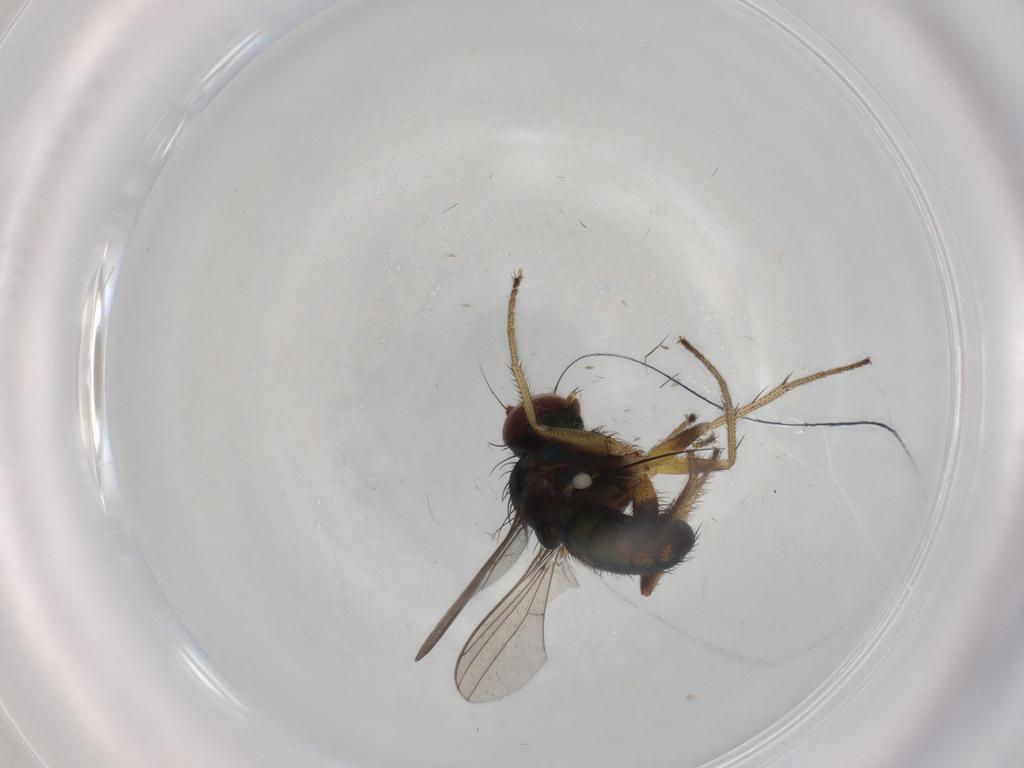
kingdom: Animalia
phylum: Arthropoda
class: Insecta
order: Diptera
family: Dolichopodidae
